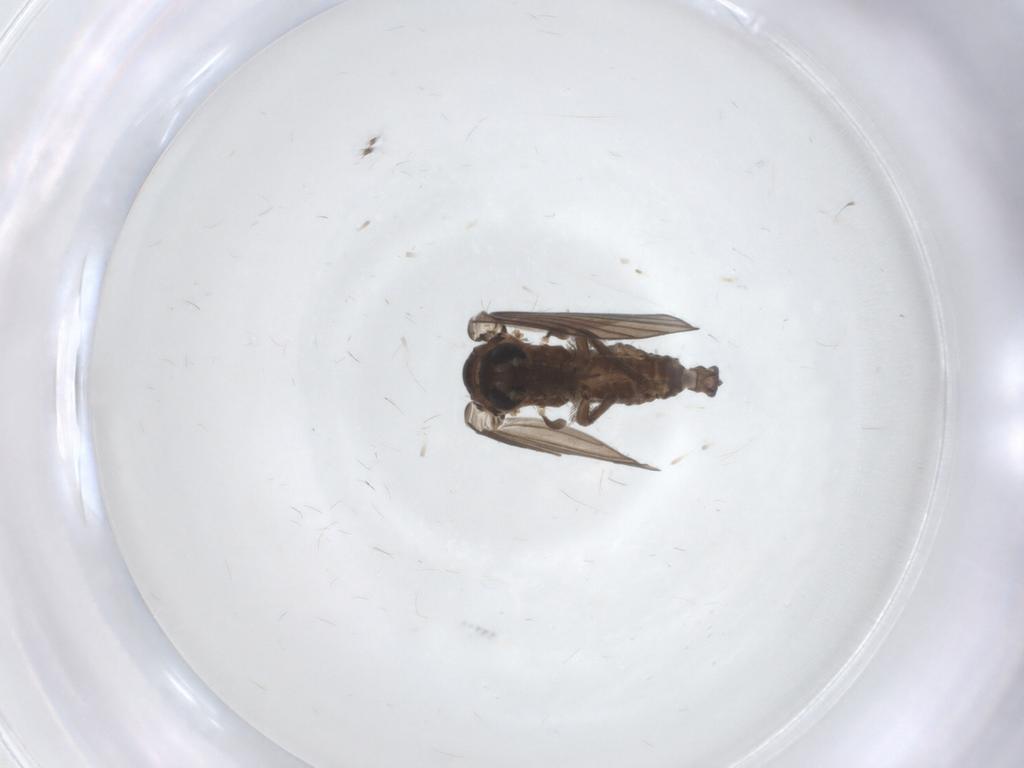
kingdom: Animalia
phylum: Arthropoda
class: Insecta
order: Diptera
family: Psychodidae
